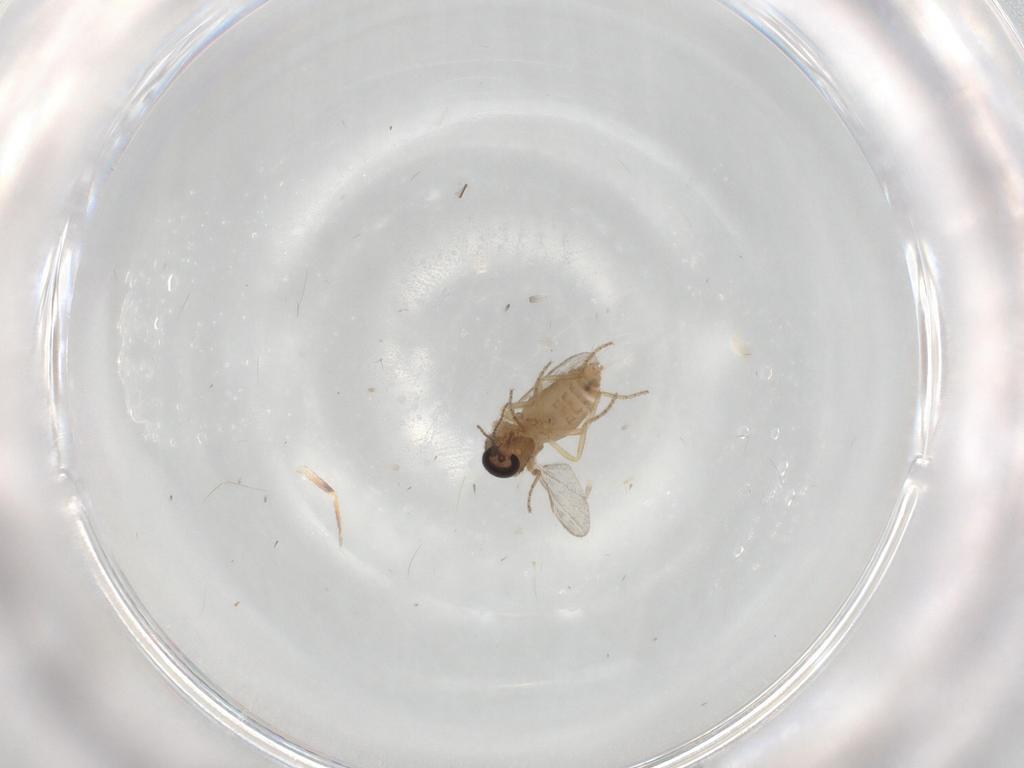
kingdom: Animalia
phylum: Arthropoda
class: Insecta
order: Diptera
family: Ceratopogonidae
